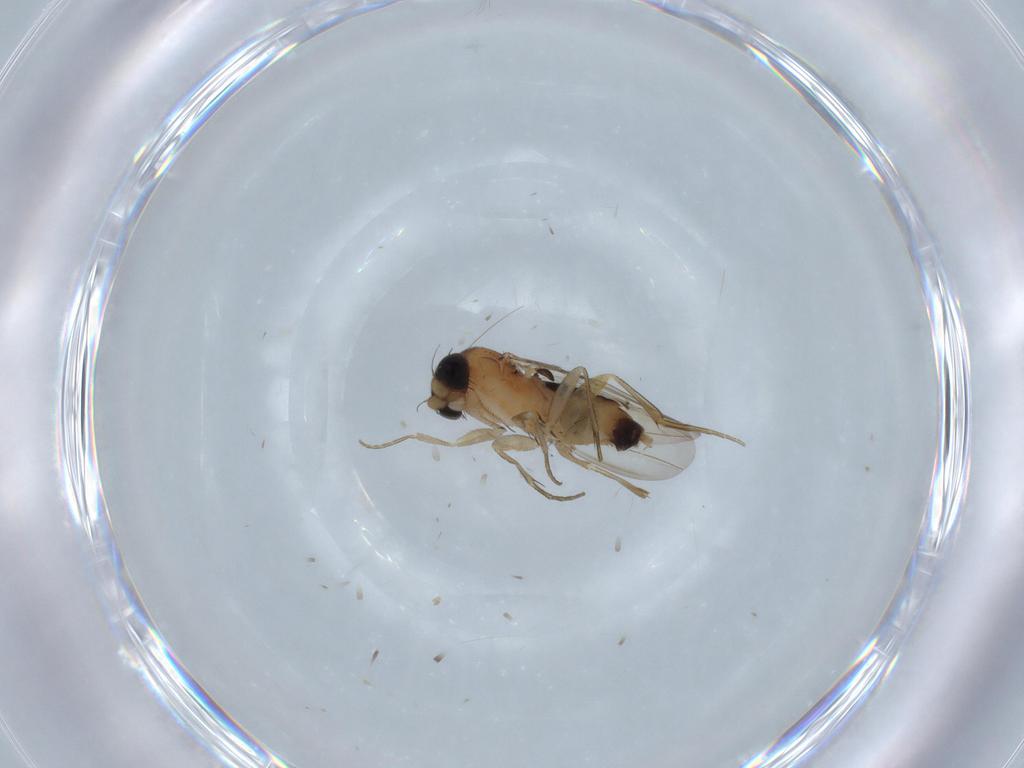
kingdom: Animalia
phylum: Arthropoda
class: Insecta
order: Diptera
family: Phoridae
